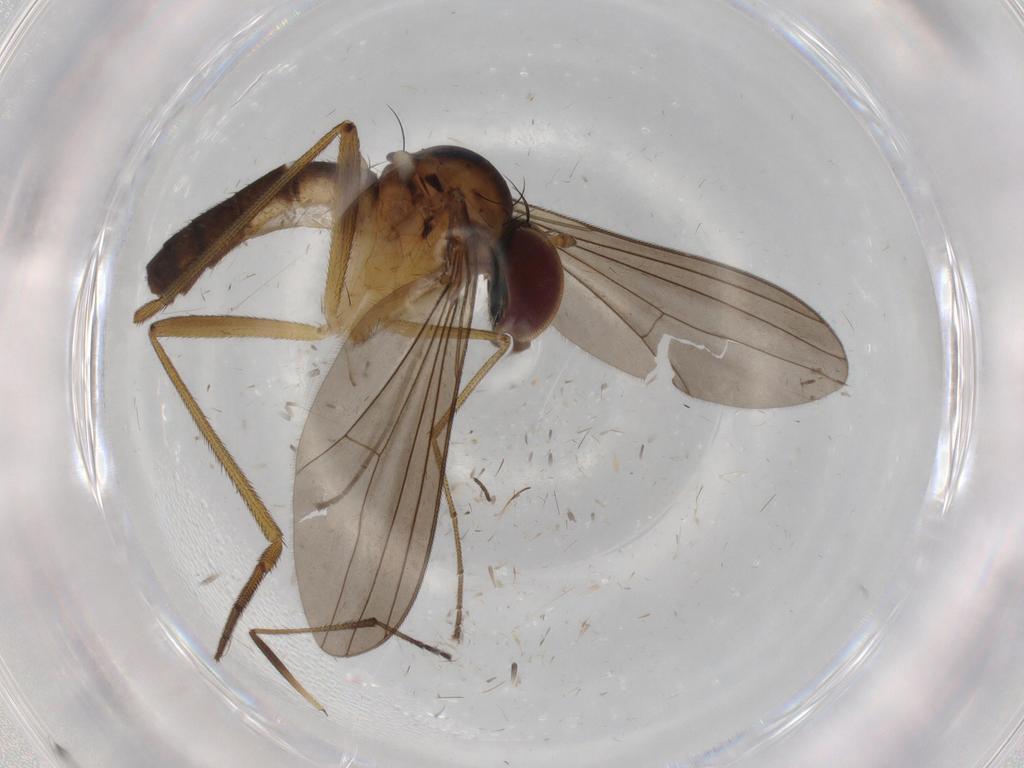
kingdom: Animalia
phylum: Arthropoda
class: Insecta
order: Diptera
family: Dolichopodidae
